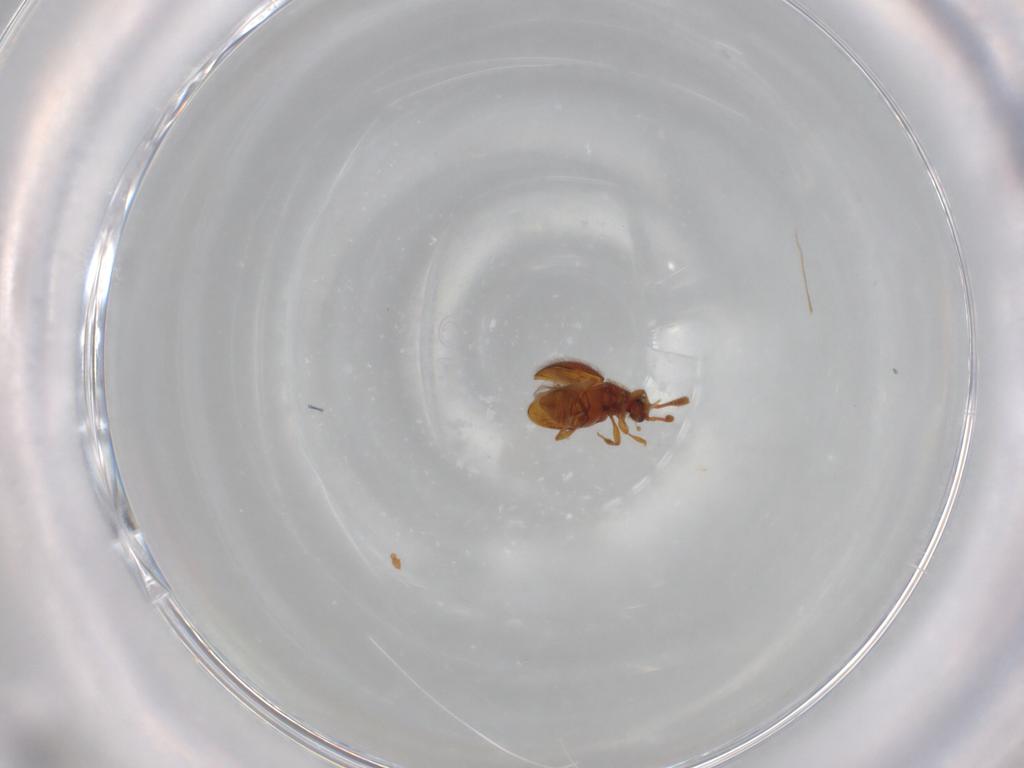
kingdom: Animalia
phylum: Arthropoda
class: Insecta
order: Coleoptera
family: Staphylinidae
